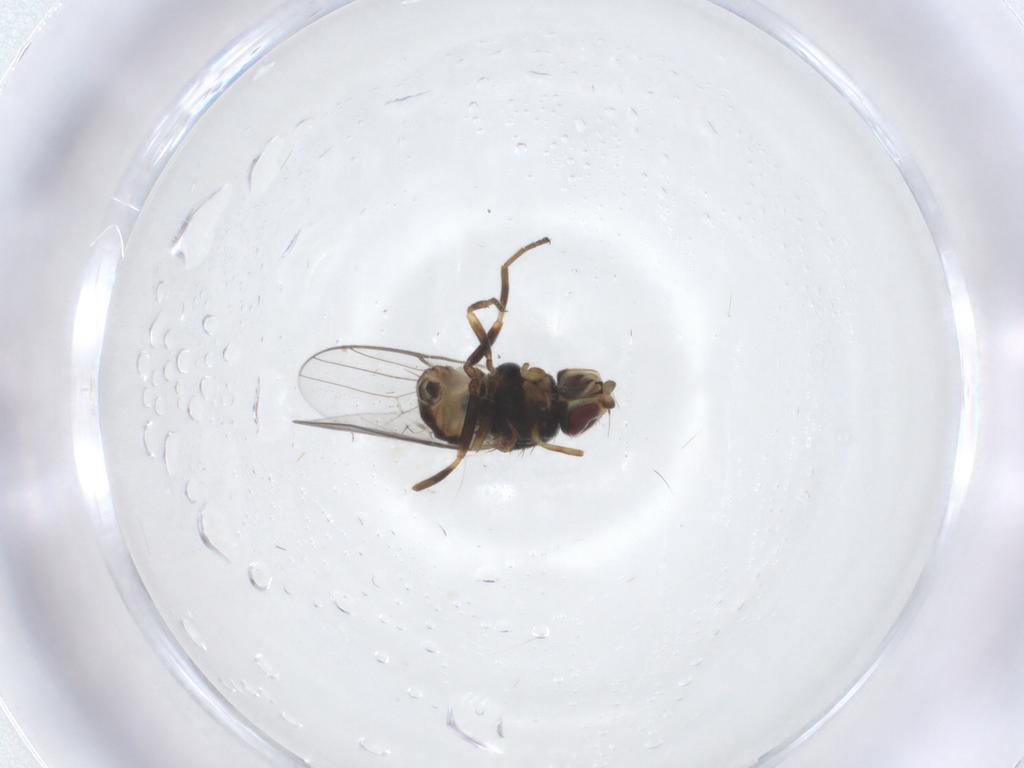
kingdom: Animalia
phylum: Arthropoda
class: Insecta
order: Diptera
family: Chloropidae
